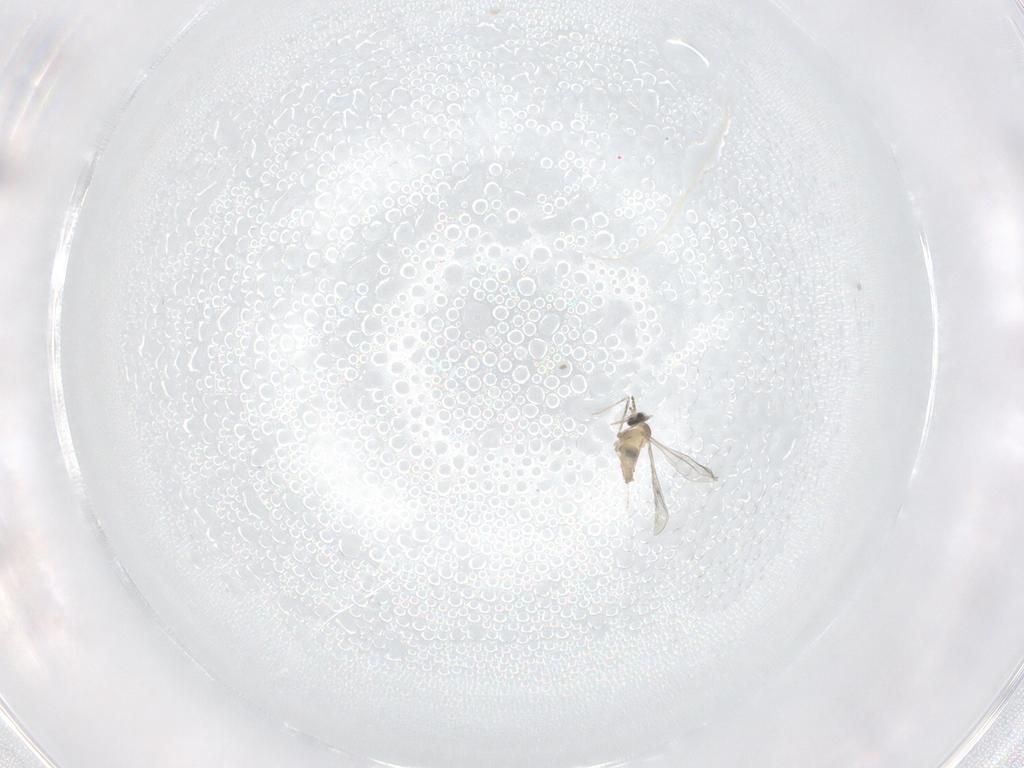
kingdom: Animalia
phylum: Arthropoda
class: Insecta
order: Diptera
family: Cecidomyiidae
